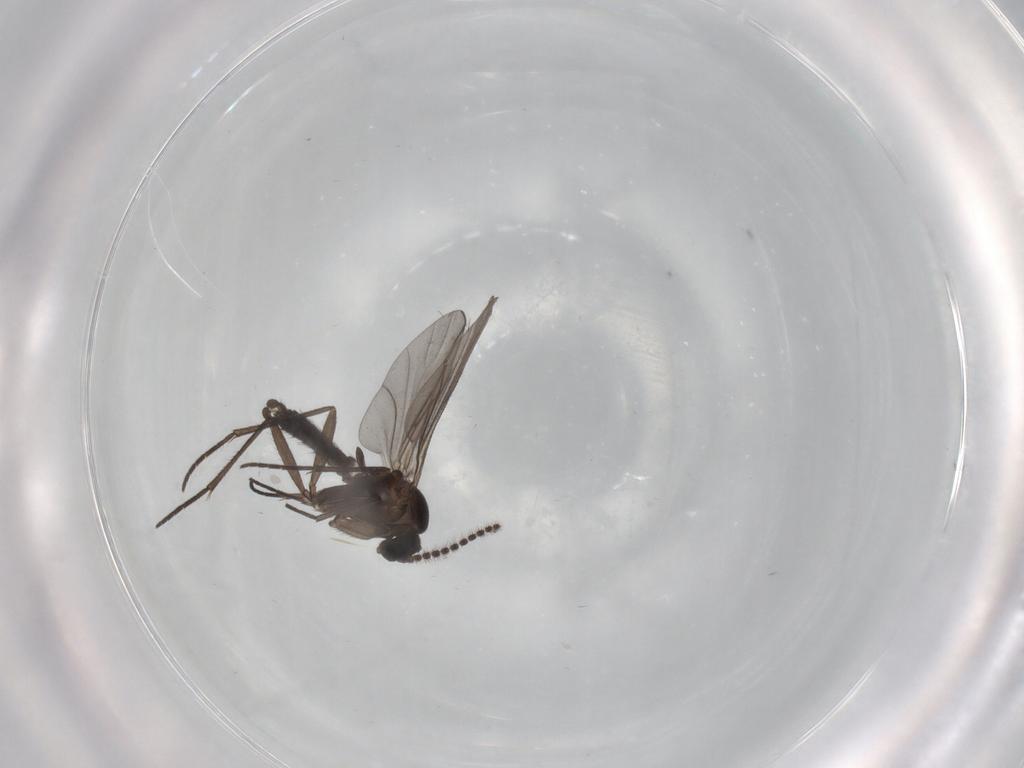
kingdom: Animalia
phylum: Arthropoda
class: Insecta
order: Diptera
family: Sciaridae
